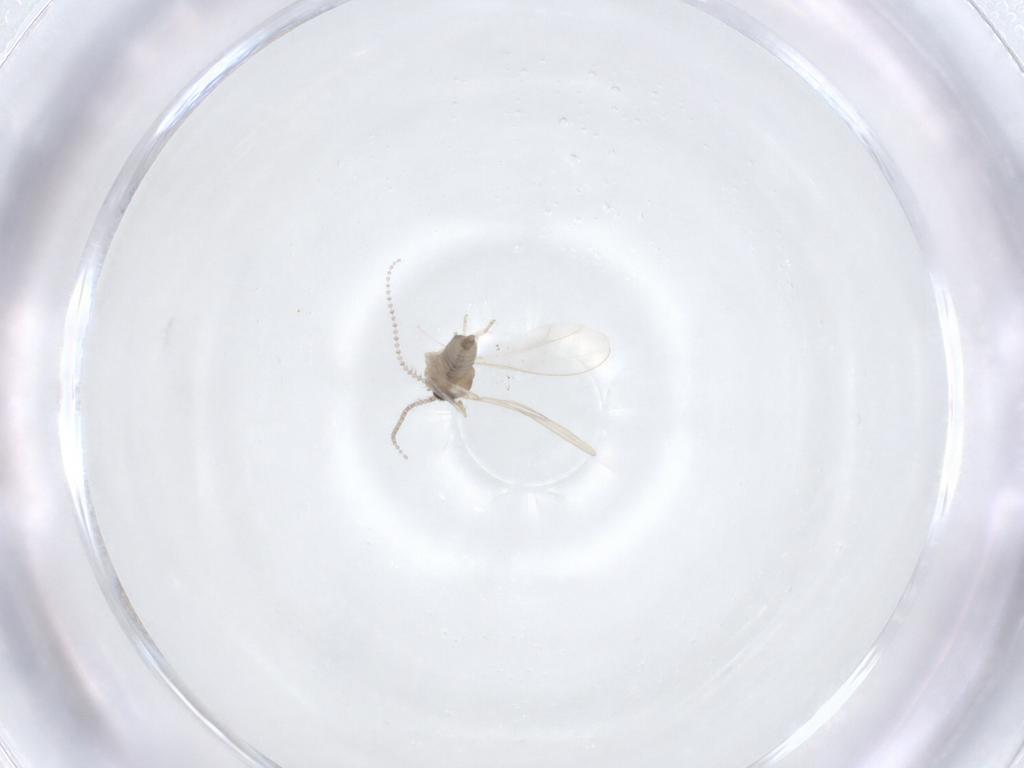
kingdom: Animalia
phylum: Arthropoda
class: Insecta
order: Diptera
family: Cecidomyiidae
